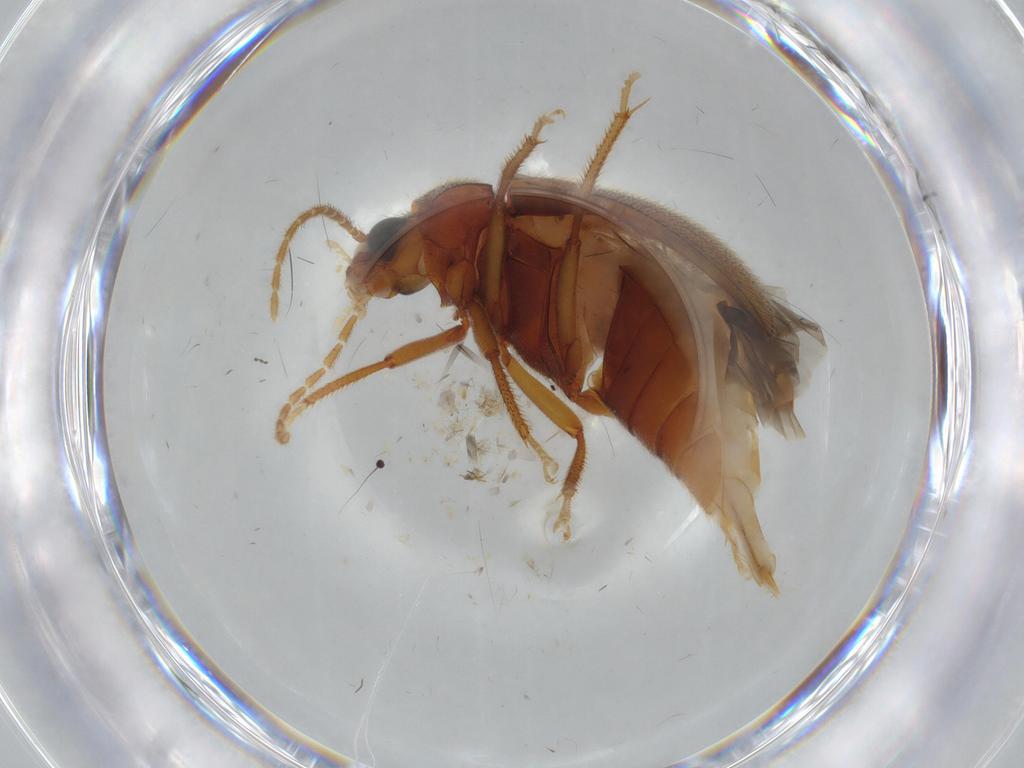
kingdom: Animalia
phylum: Arthropoda
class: Insecta
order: Coleoptera
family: Ptilodactylidae
